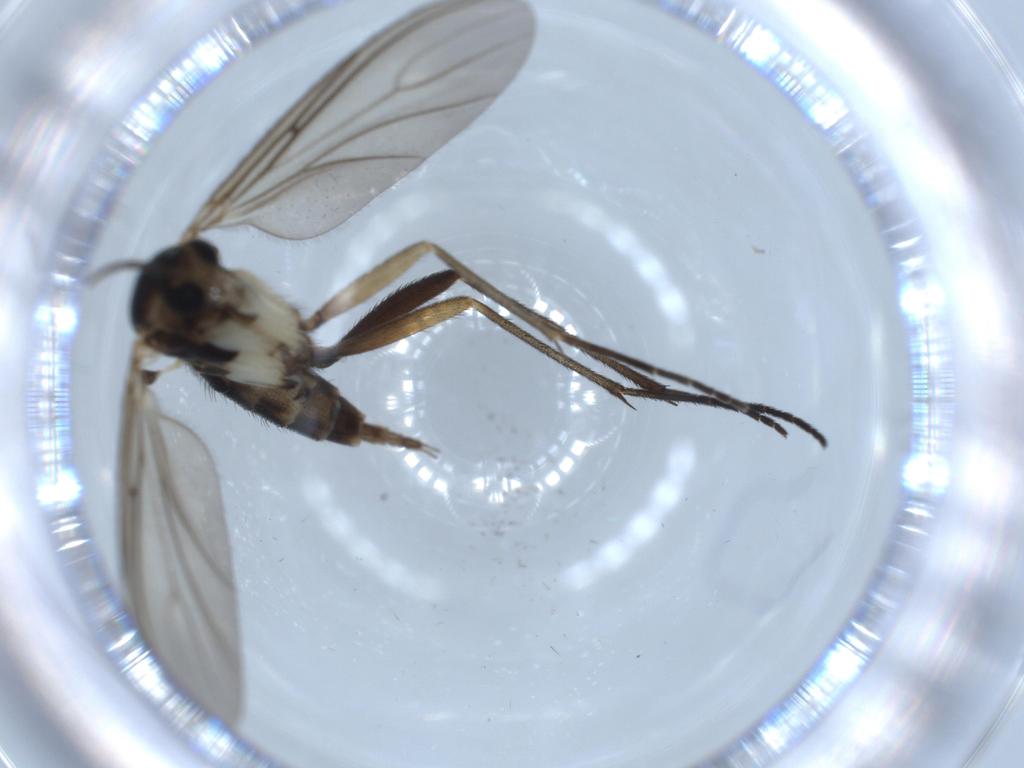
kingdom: Animalia
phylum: Arthropoda
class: Insecta
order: Diptera
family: Sciaridae
